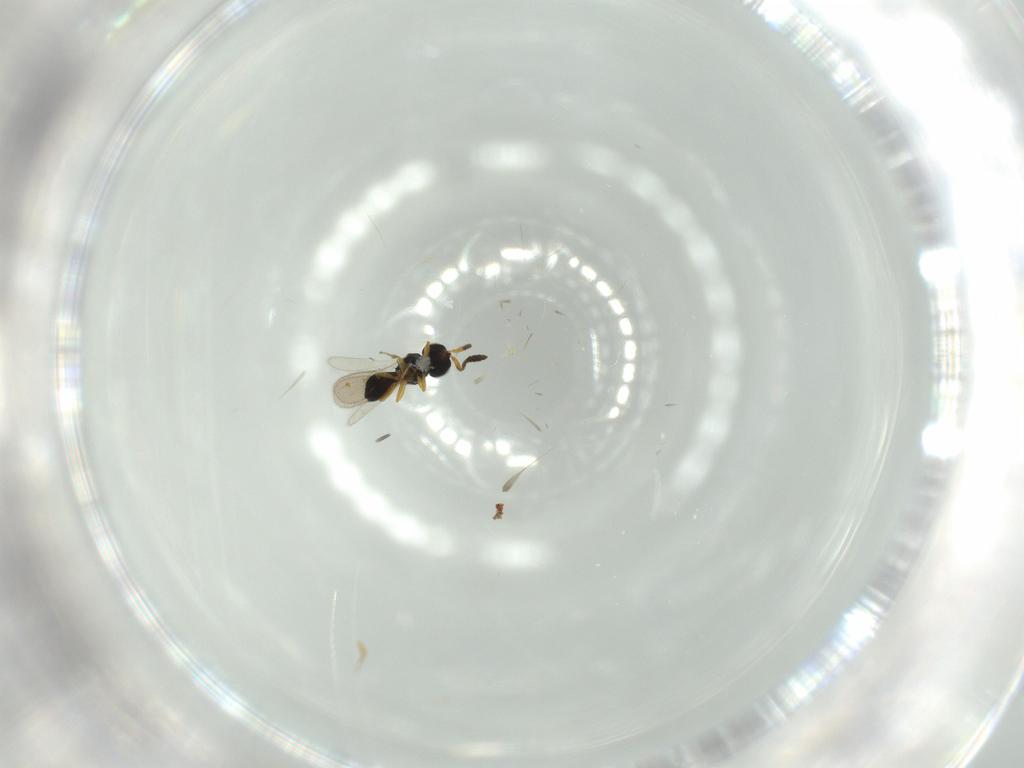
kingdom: Animalia
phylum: Arthropoda
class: Insecta
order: Hymenoptera
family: Scelionidae
